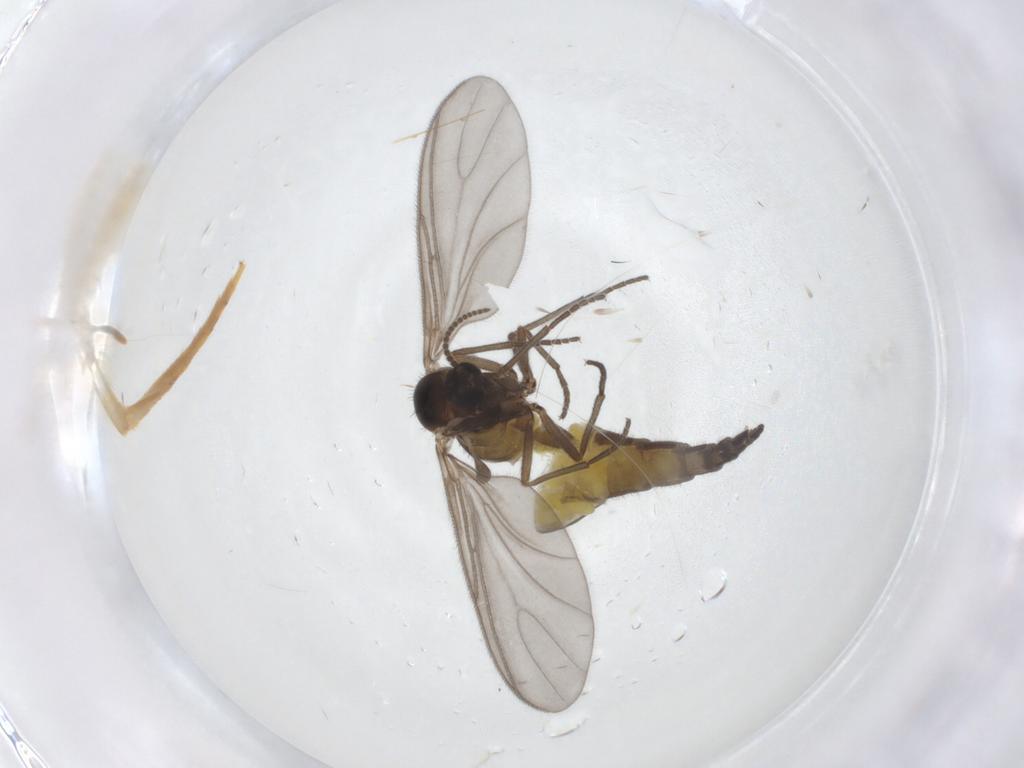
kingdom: Animalia
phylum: Arthropoda
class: Insecta
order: Diptera
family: Sciaridae
